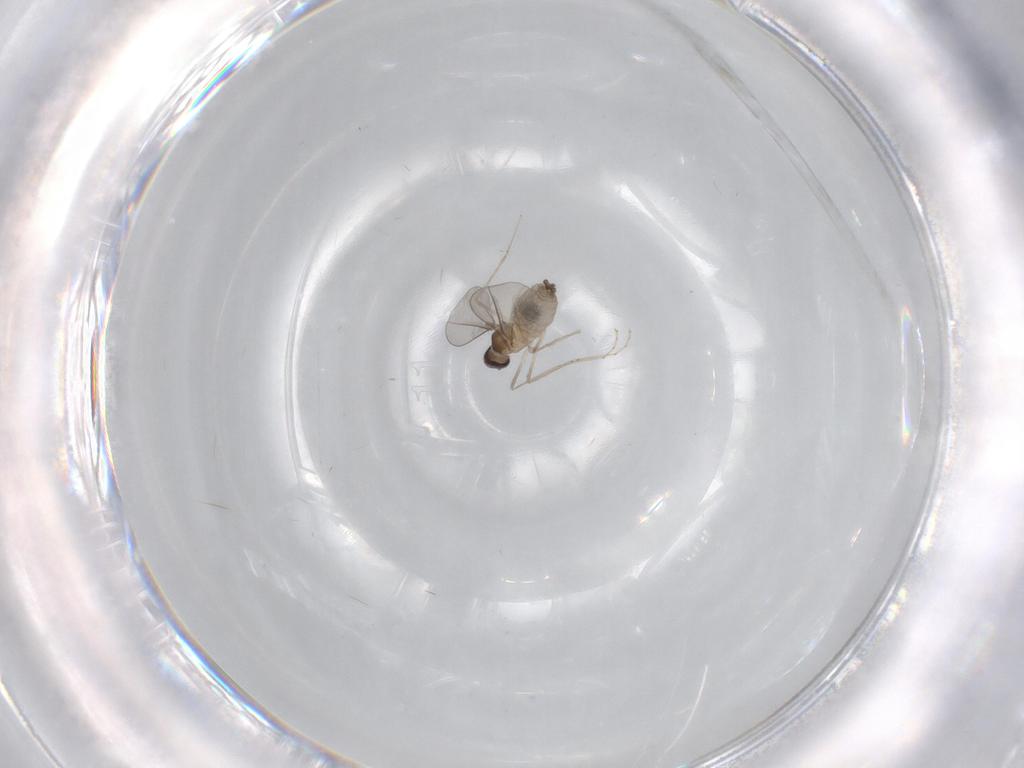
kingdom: Animalia
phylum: Arthropoda
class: Insecta
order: Diptera
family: Cecidomyiidae
